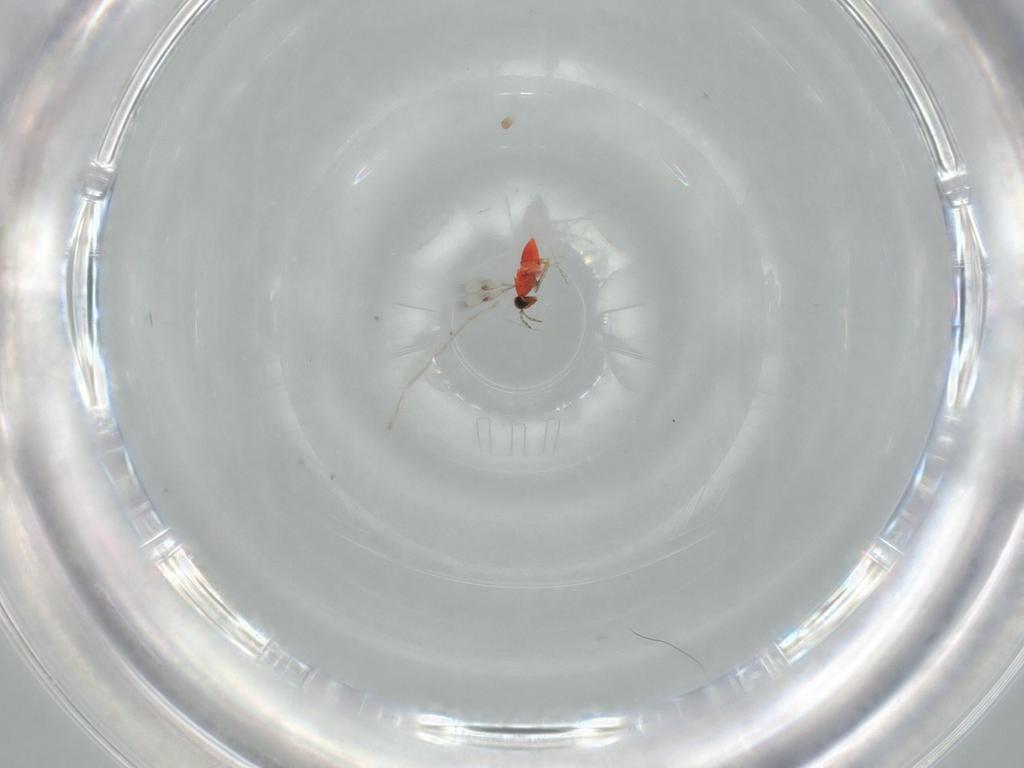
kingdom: Animalia
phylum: Arthropoda
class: Insecta
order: Hymenoptera
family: Trichogrammatidae
